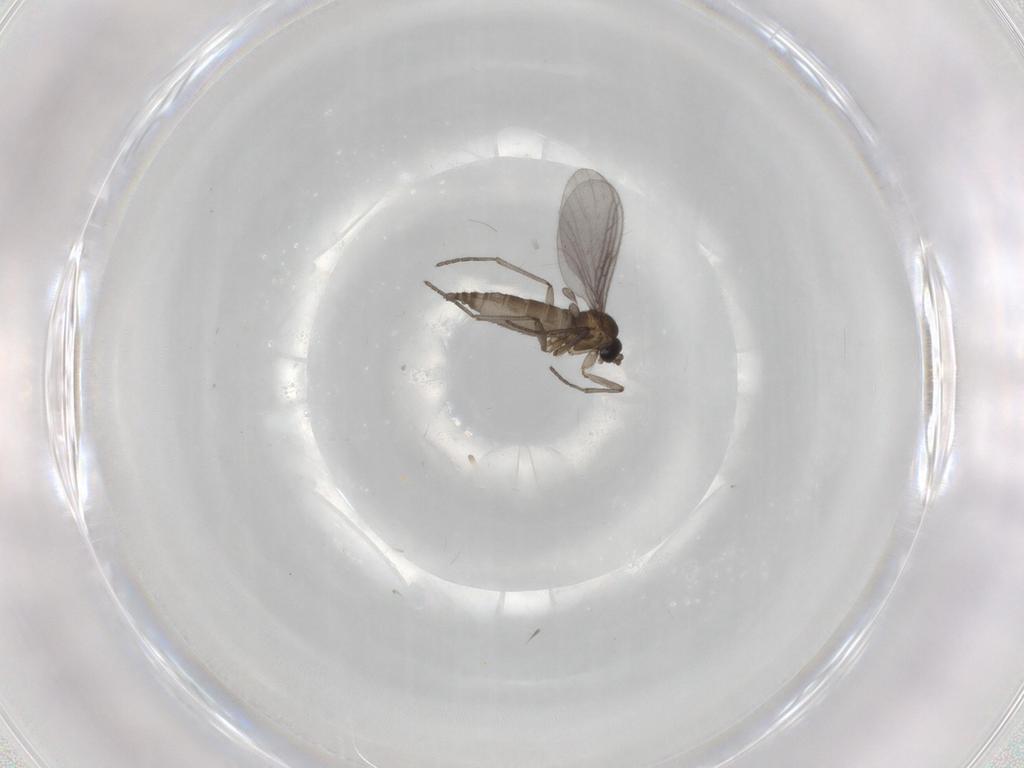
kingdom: Animalia
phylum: Arthropoda
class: Insecta
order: Diptera
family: Sciaridae
